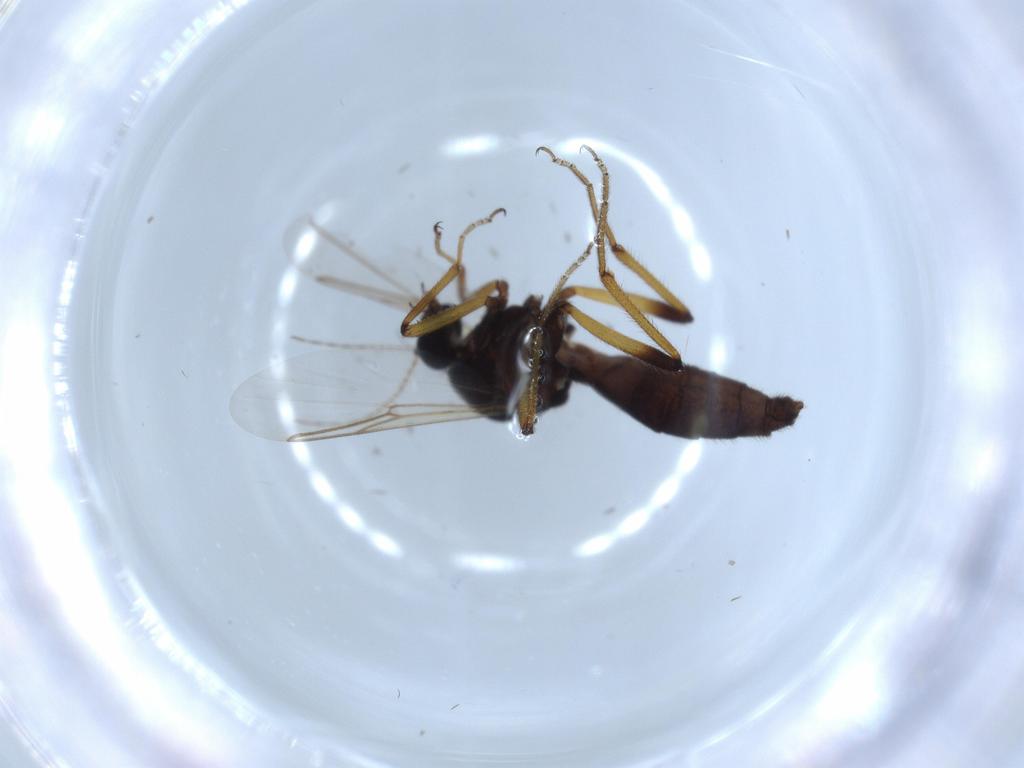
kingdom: Animalia
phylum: Arthropoda
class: Insecta
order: Diptera
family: Ceratopogonidae
